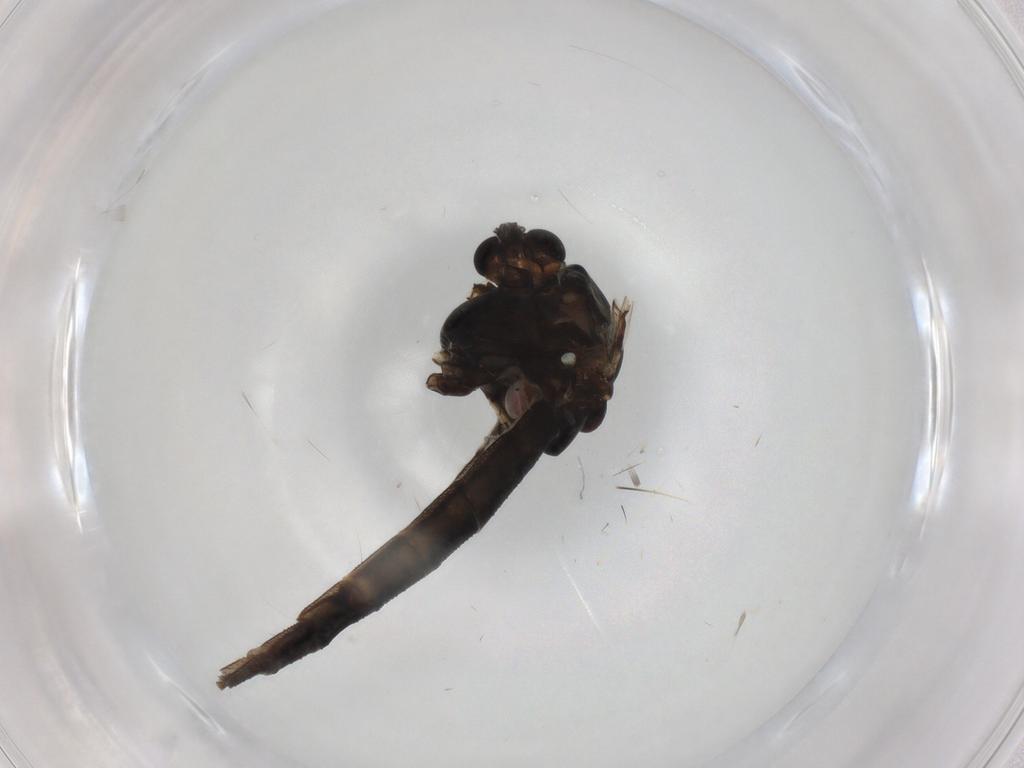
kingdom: Animalia
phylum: Arthropoda
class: Insecta
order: Diptera
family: Chironomidae
